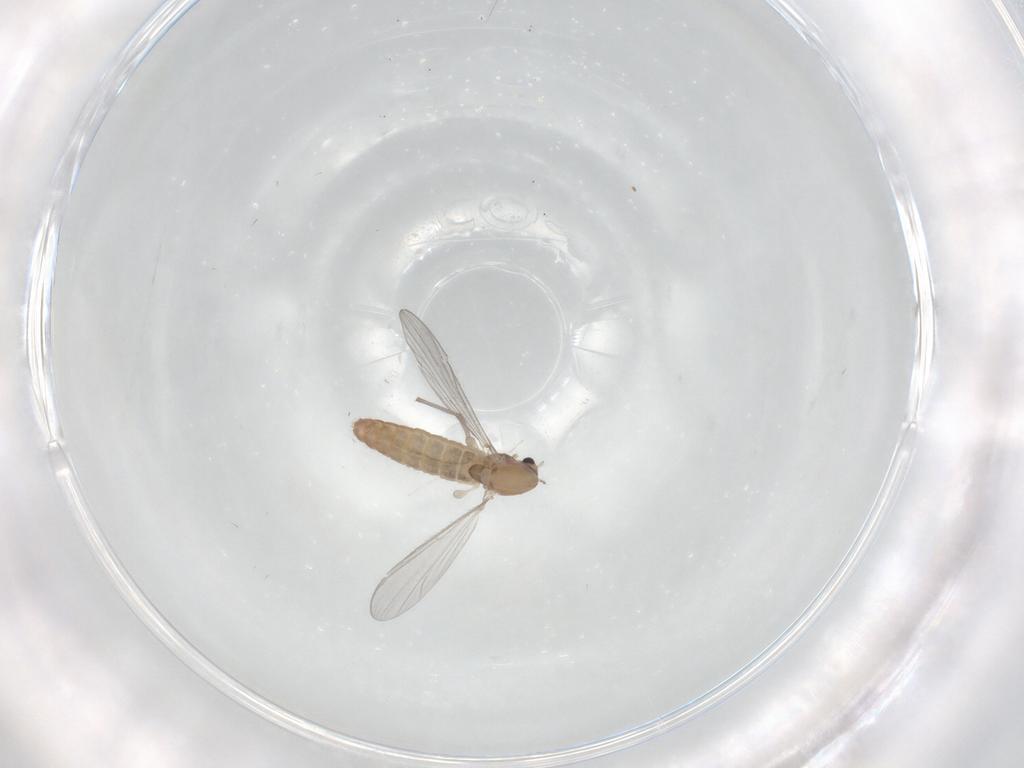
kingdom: Animalia
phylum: Arthropoda
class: Insecta
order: Diptera
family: Chironomidae
